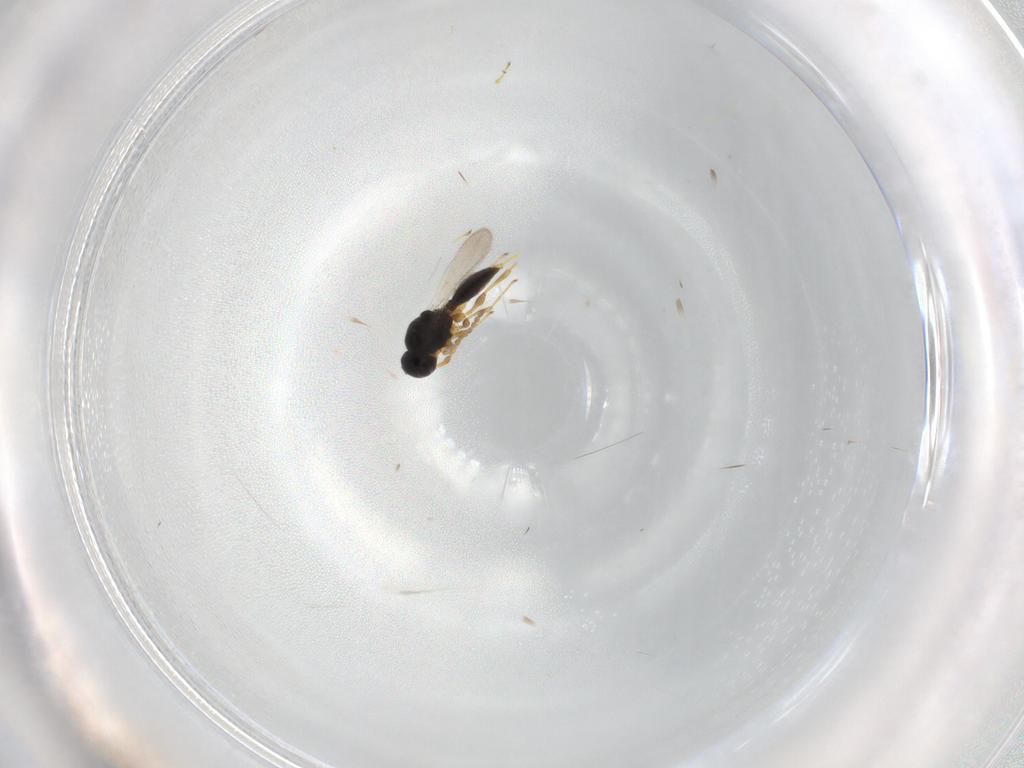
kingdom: Animalia
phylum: Arthropoda
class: Insecta
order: Hymenoptera
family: Platygastridae
